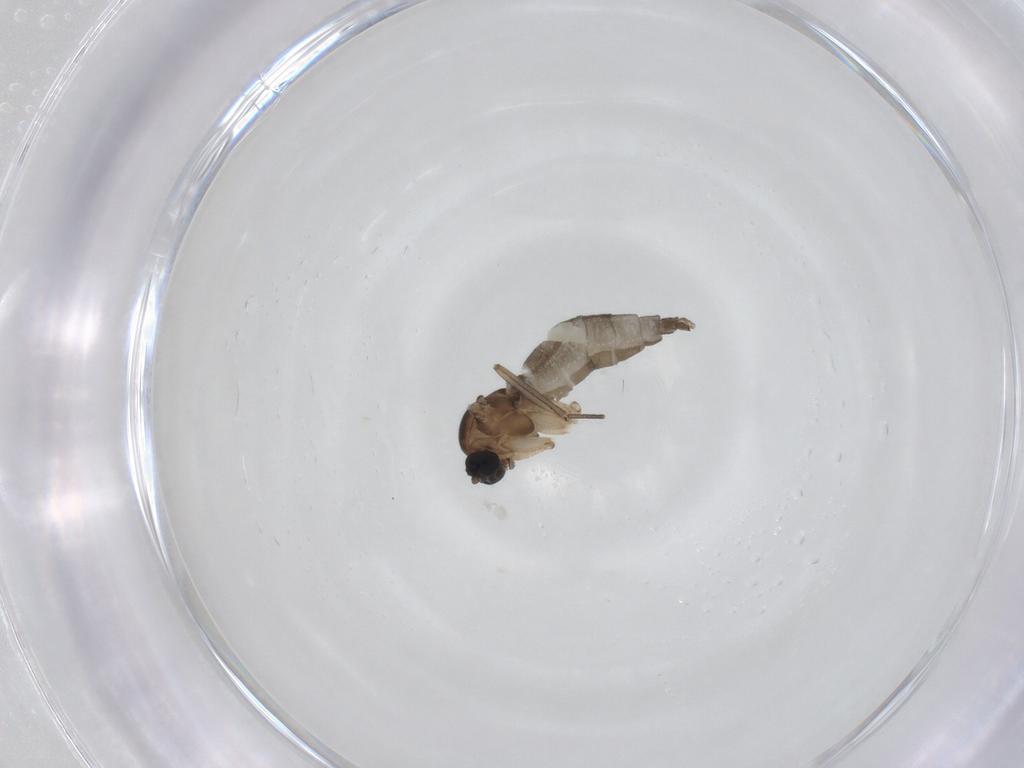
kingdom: Animalia
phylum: Arthropoda
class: Insecta
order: Diptera
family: Sciaridae
